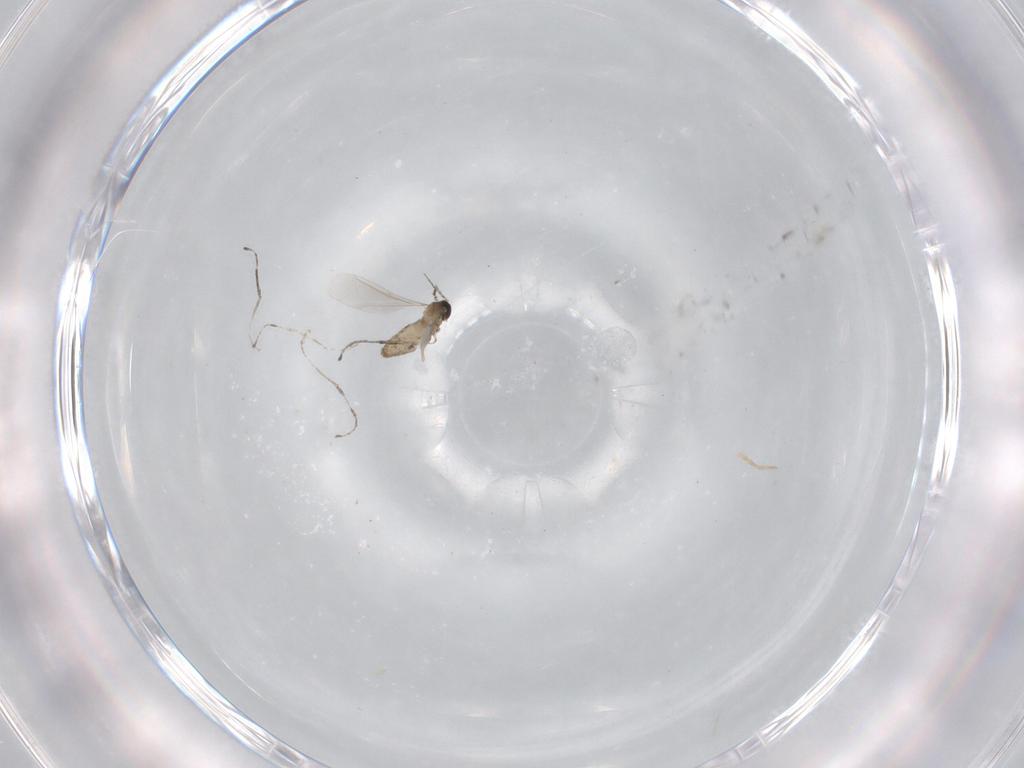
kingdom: Animalia
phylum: Arthropoda
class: Insecta
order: Diptera
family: Cecidomyiidae
